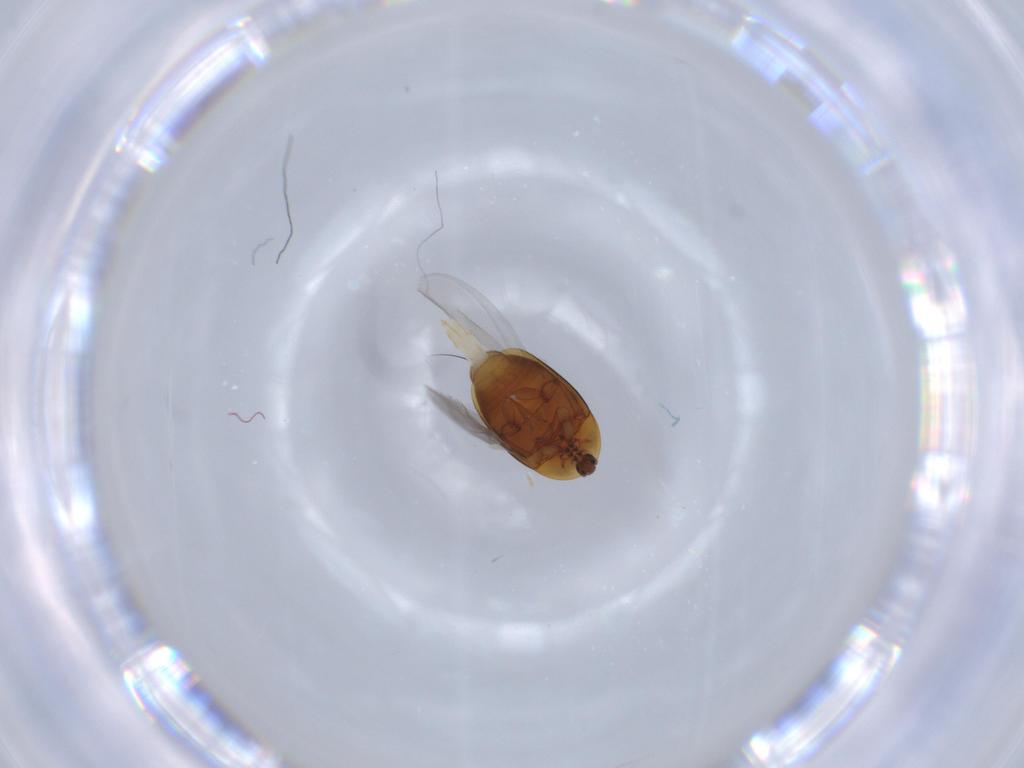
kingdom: Animalia
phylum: Arthropoda
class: Insecta
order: Coleoptera
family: Corylophidae
